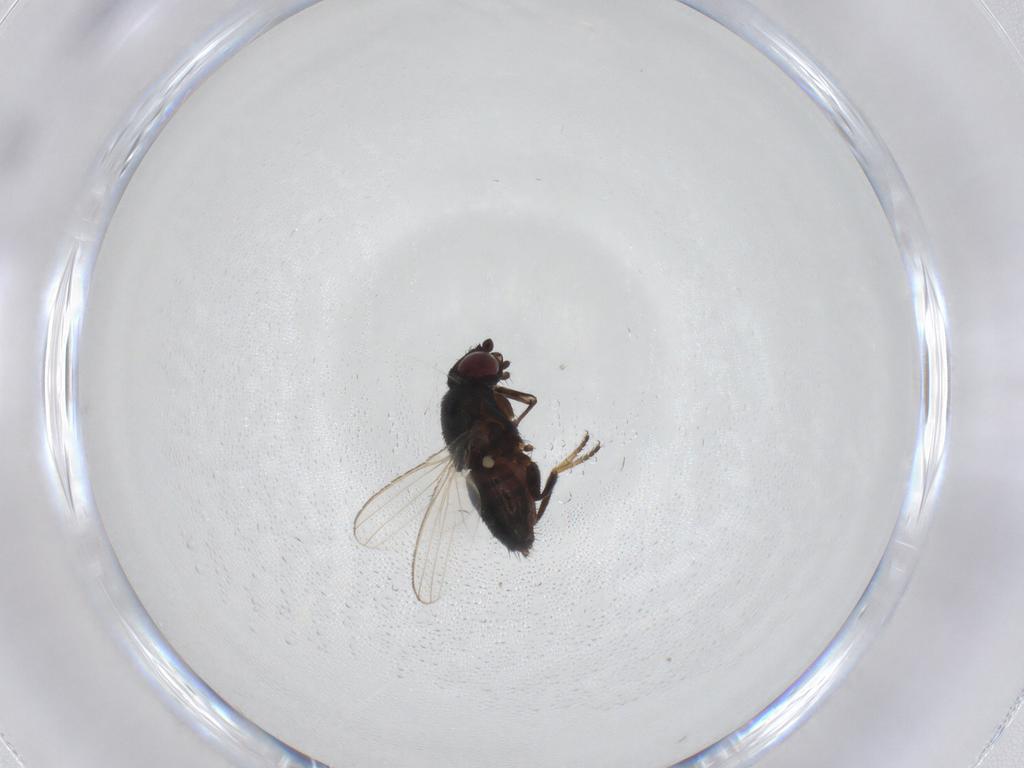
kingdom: Animalia
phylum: Arthropoda
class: Insecta
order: Diptera
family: Milichiidae
